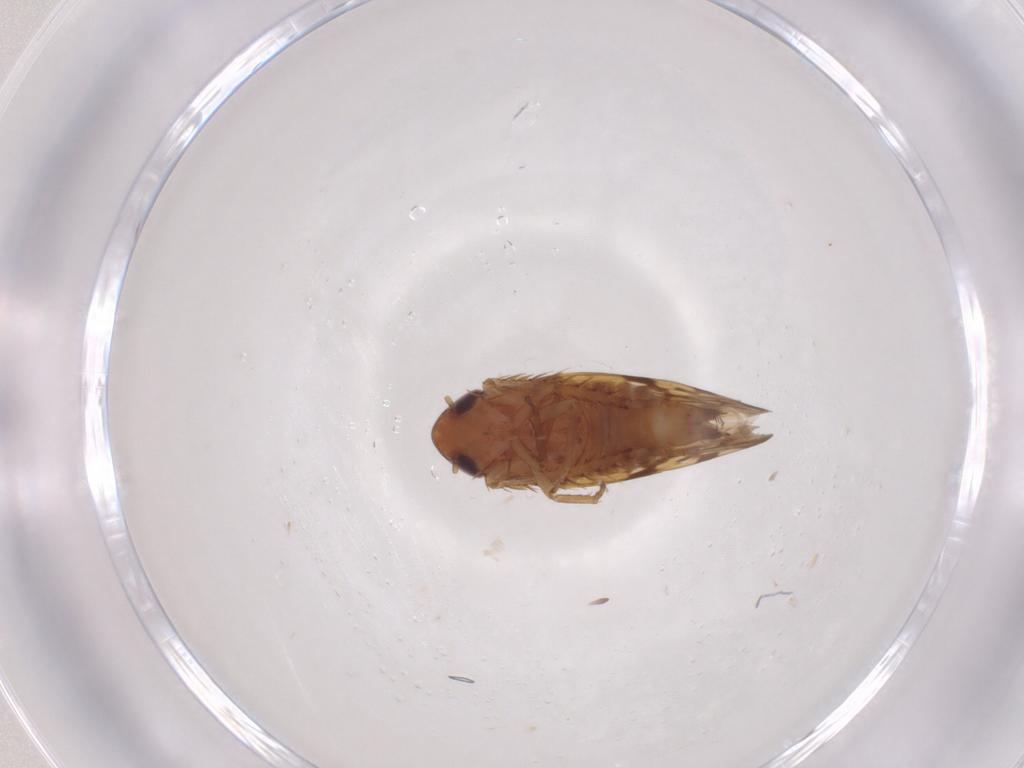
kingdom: Animalia
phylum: Arthropoda
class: Insecta
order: Hemiptera
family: Cicadellidae
